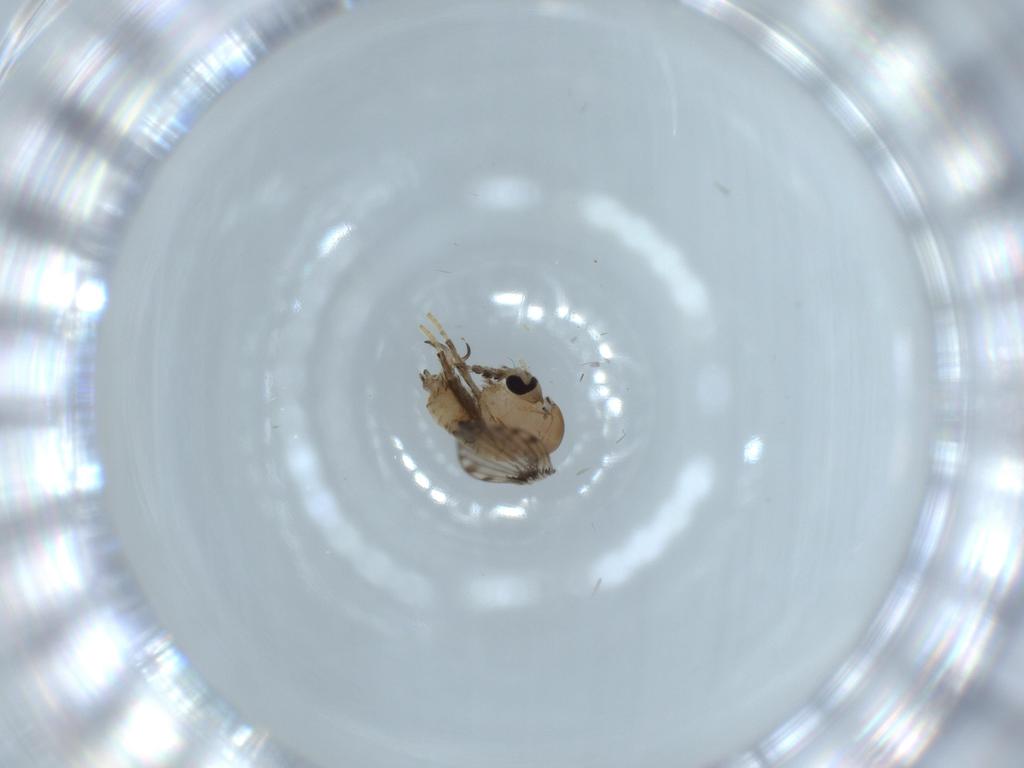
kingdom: Animalia
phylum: Arthropoda
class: Insecta
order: Diptera
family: Psychodidae
